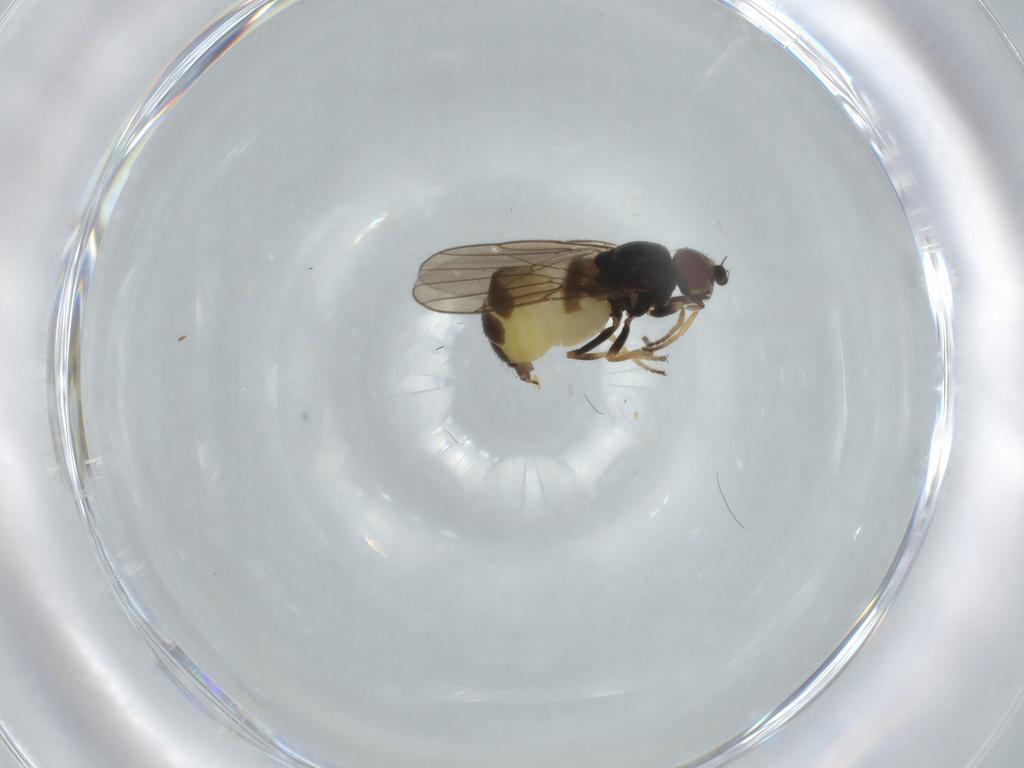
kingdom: Animalia
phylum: Arthropoda
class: Insecta
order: Diptera
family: Chloropidae
